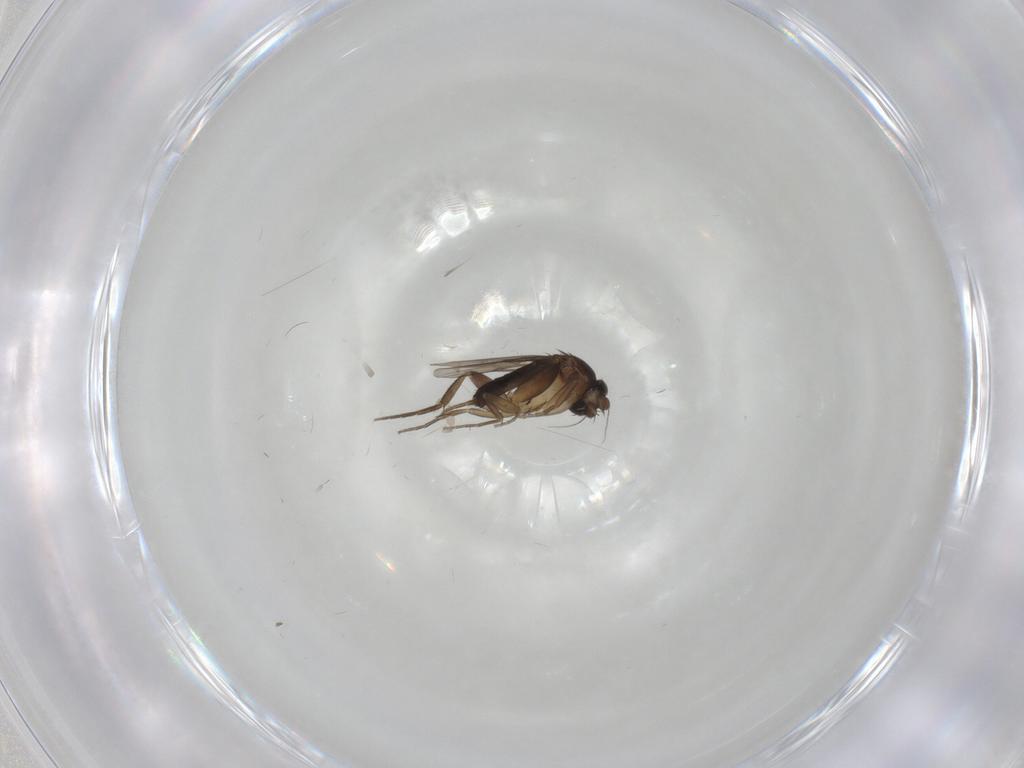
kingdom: Animalia
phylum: Arthropoda
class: Insecta
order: Diptera
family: Phoridae
